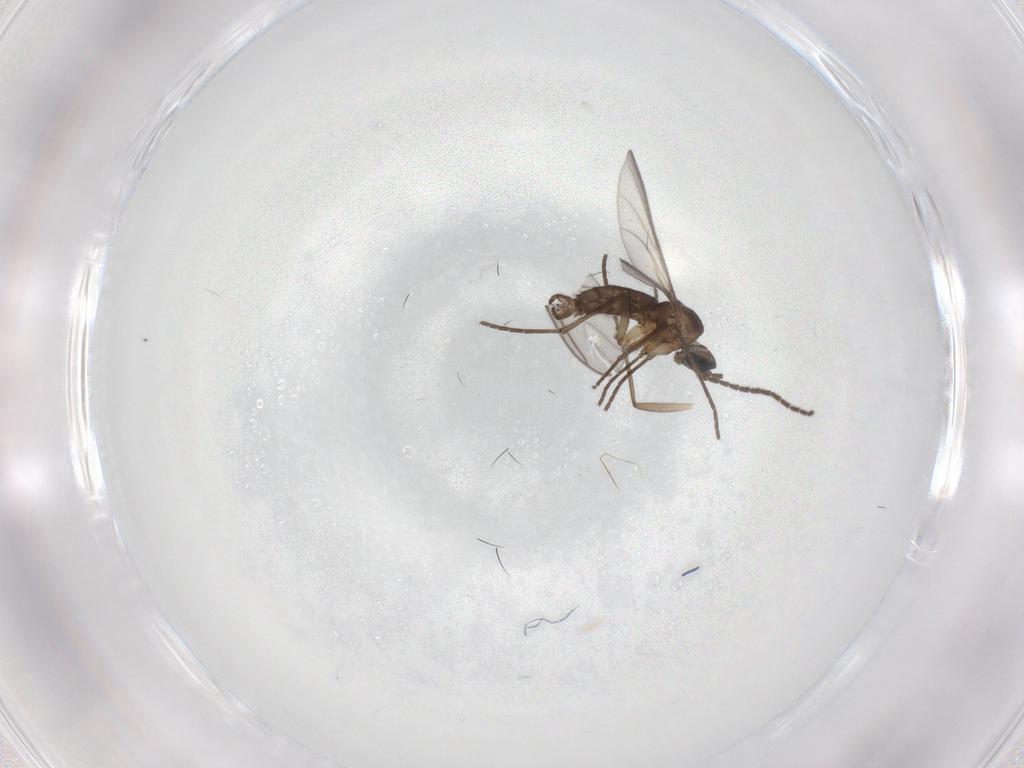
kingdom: Animalia
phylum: Arthropoda
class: Insecta
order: Diptera
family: Sciaridae
